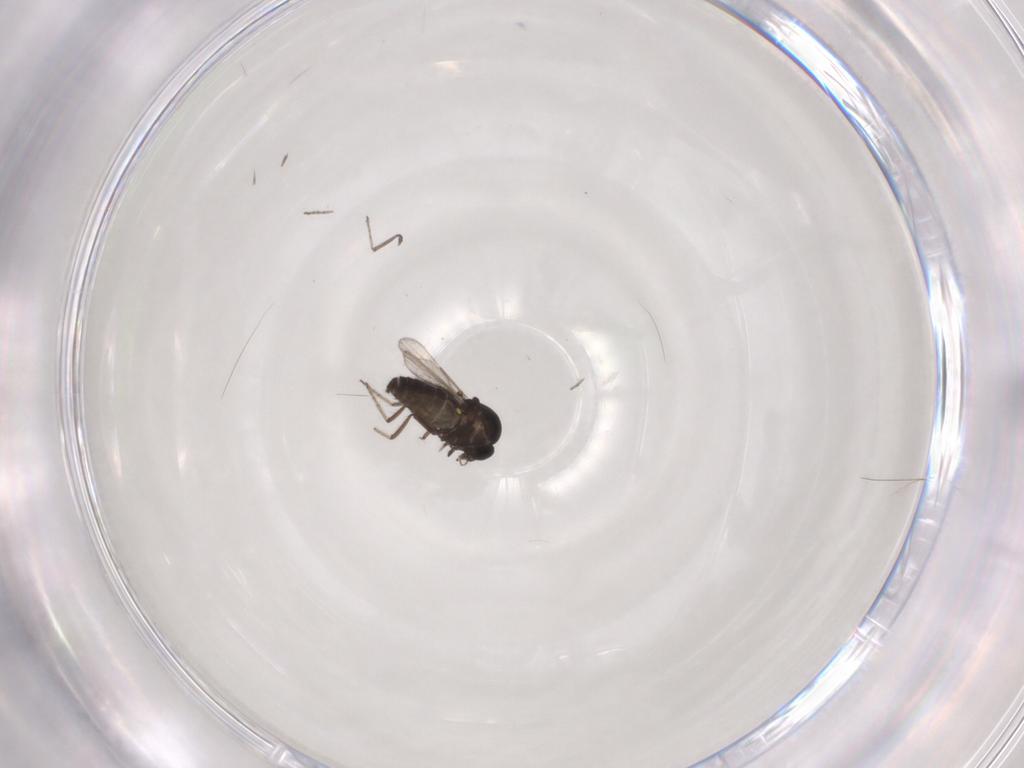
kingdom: Animalia
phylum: Arthropoda
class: Insecta
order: Diptera
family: Ceratopogonidae
